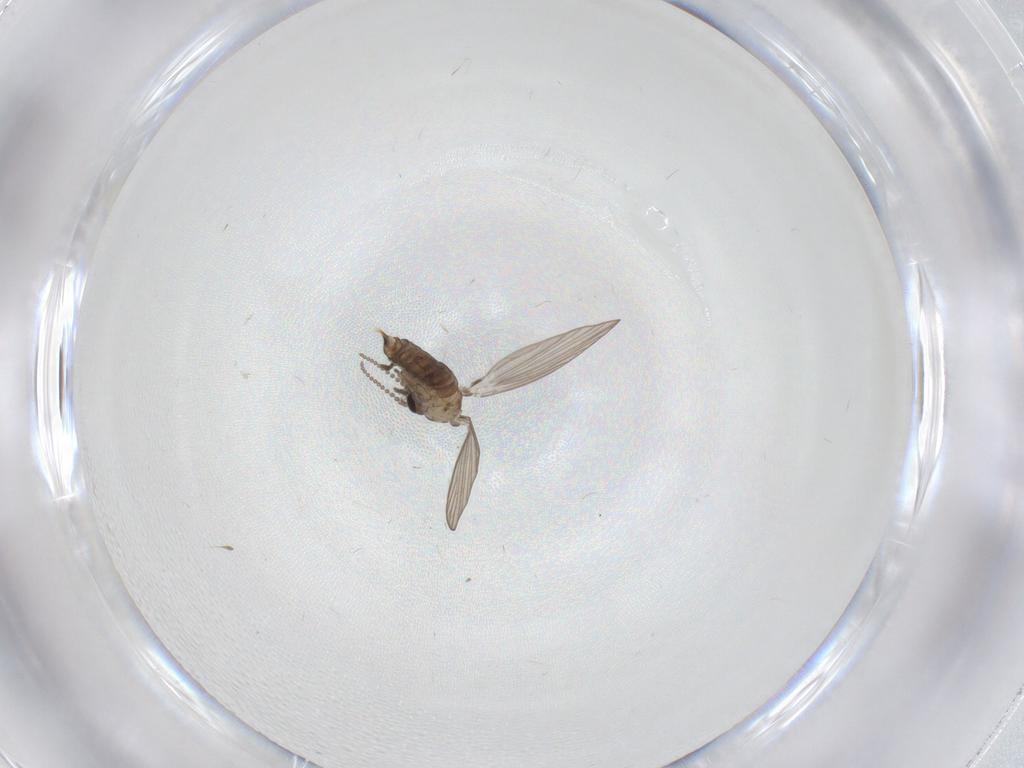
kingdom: Animalia
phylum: Arthropoda
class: Insecta
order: Diptera
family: Psychodidae
